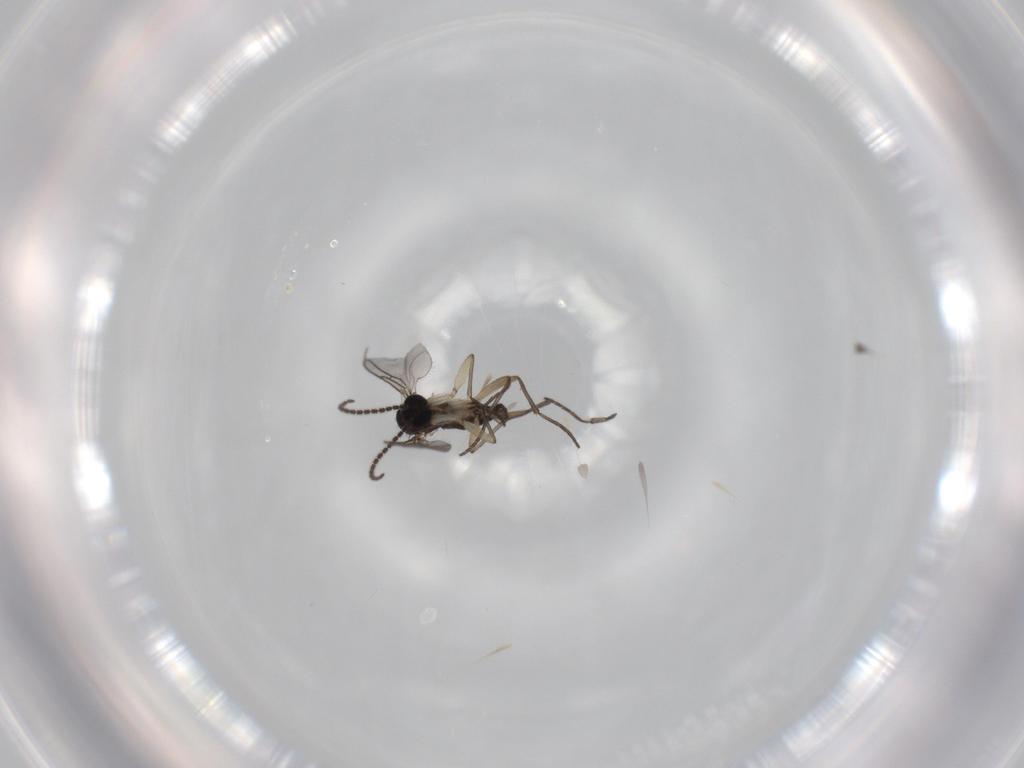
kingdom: Animalia
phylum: Arthropoda
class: Insecta
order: Diptera
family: Sciaridae
